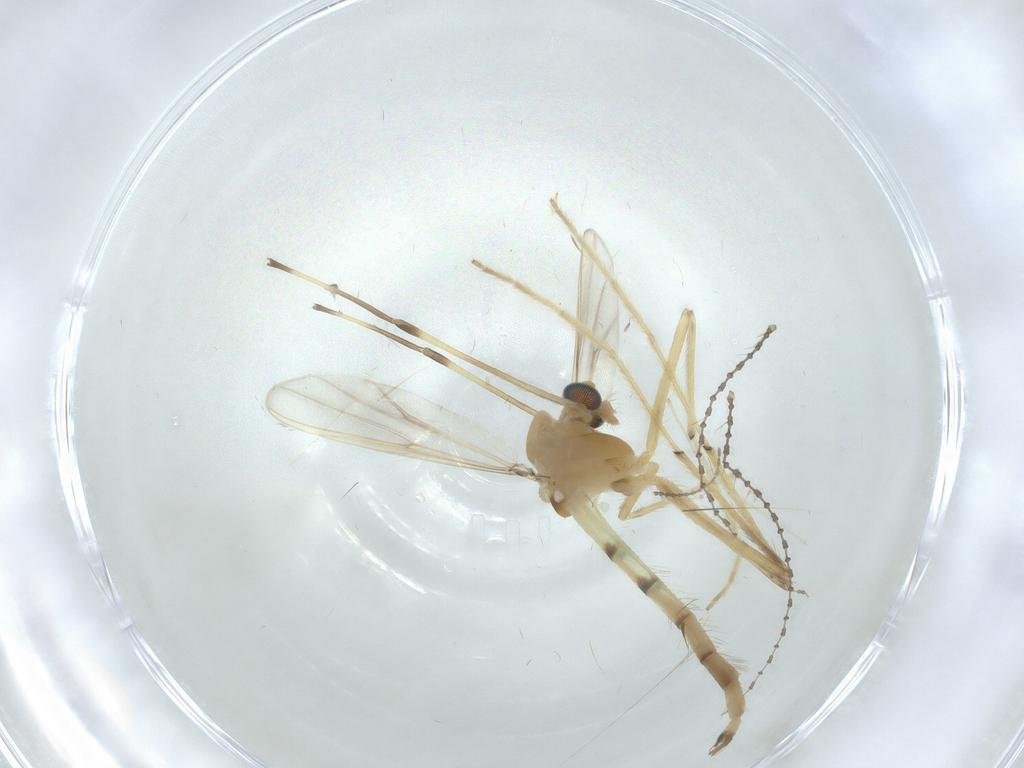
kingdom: Animalia
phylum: Arthropoda
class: Insecta
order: Diptera
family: Chironomidae
